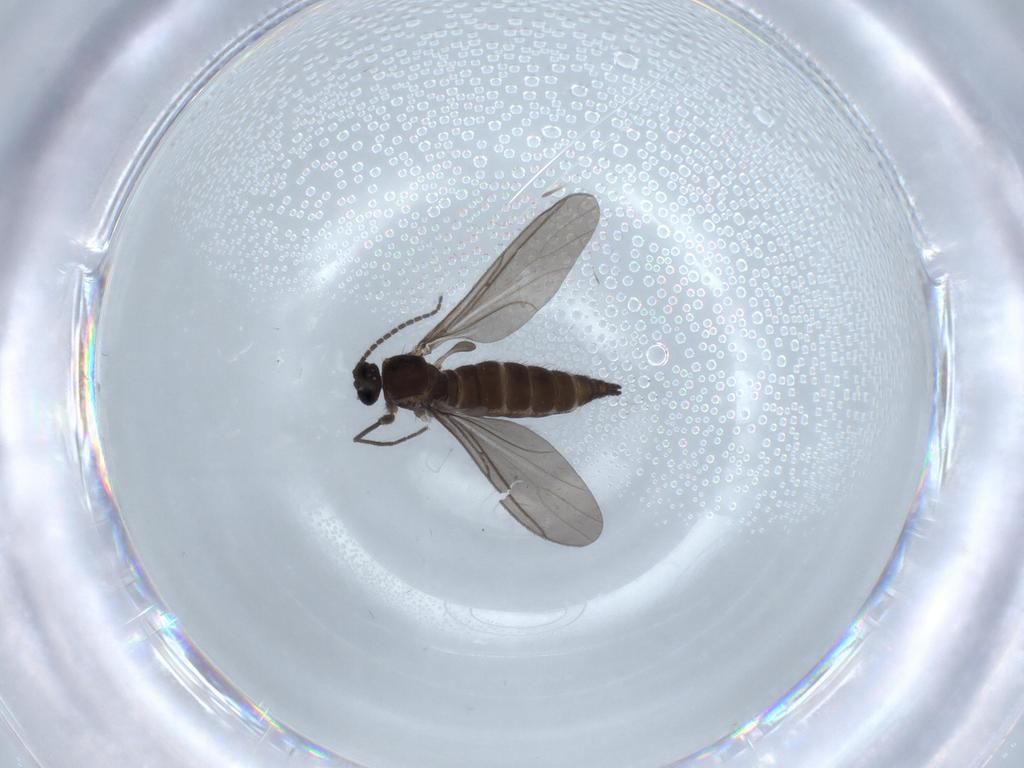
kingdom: Animalia
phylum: Arthropoda
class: Insecta
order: Diptera
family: Sciaridae
